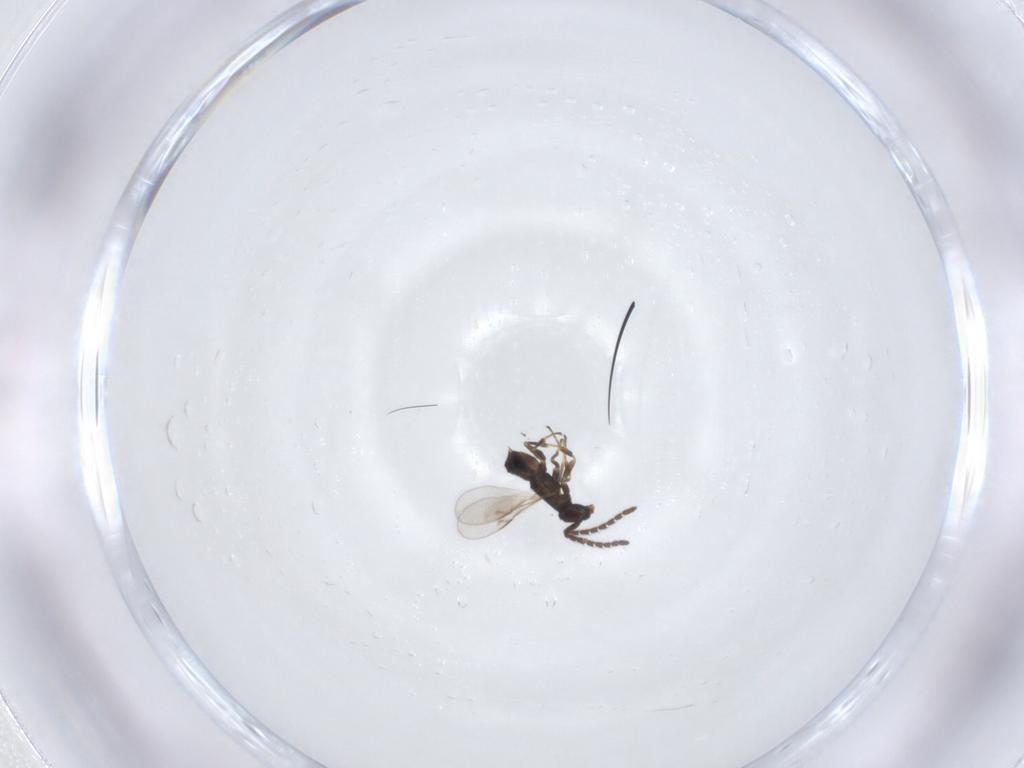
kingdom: Animalia
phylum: Arthropoda
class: Insecta
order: Hymenoptera
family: Encyrtidae
